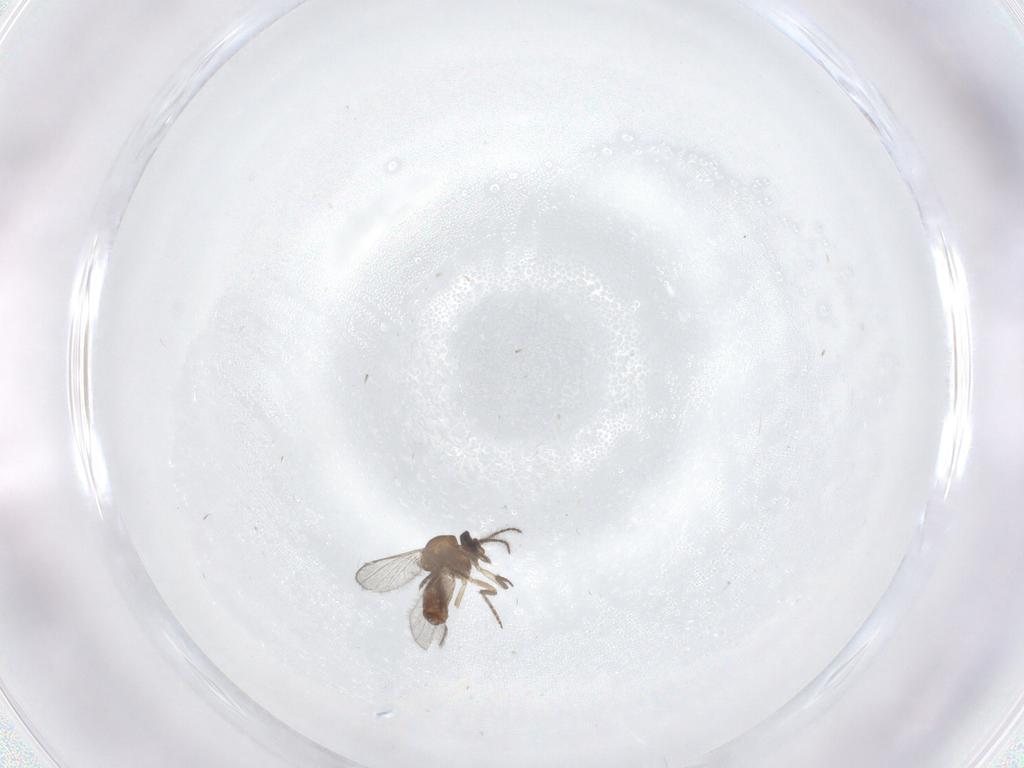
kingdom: Animalia
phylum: Arthropoda
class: Insecta
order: Diptera
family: Ceratopogonidae
